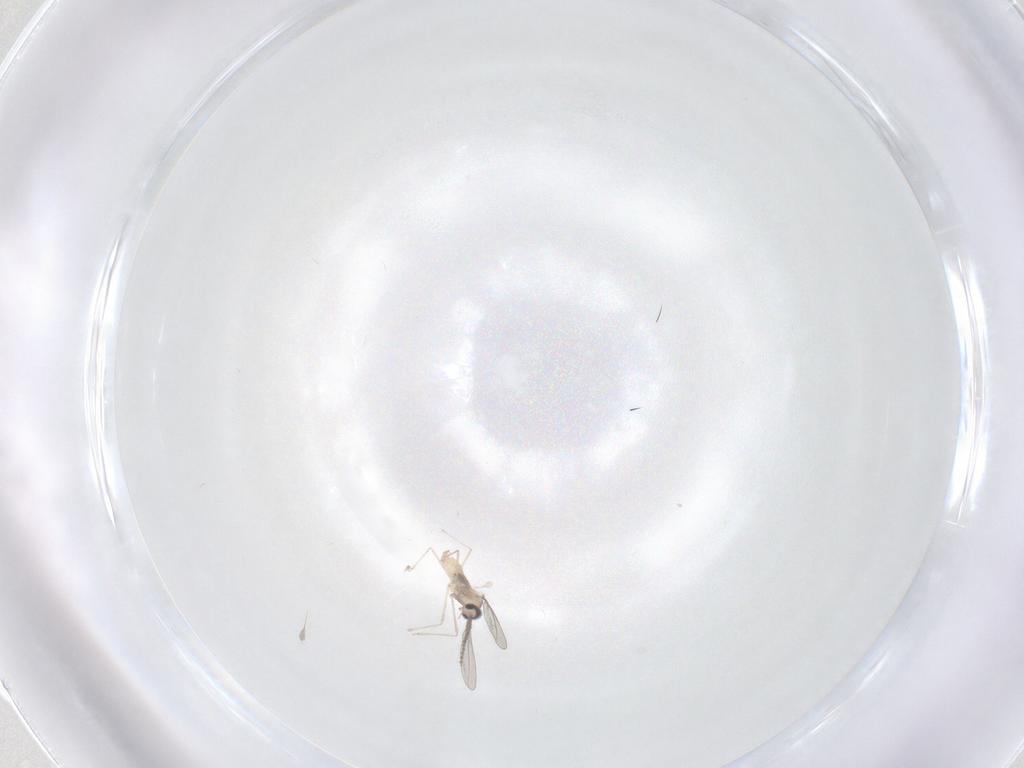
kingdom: Animalia
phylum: Arthropoda
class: Insecta
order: Diptera
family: Cecidomyiidae
